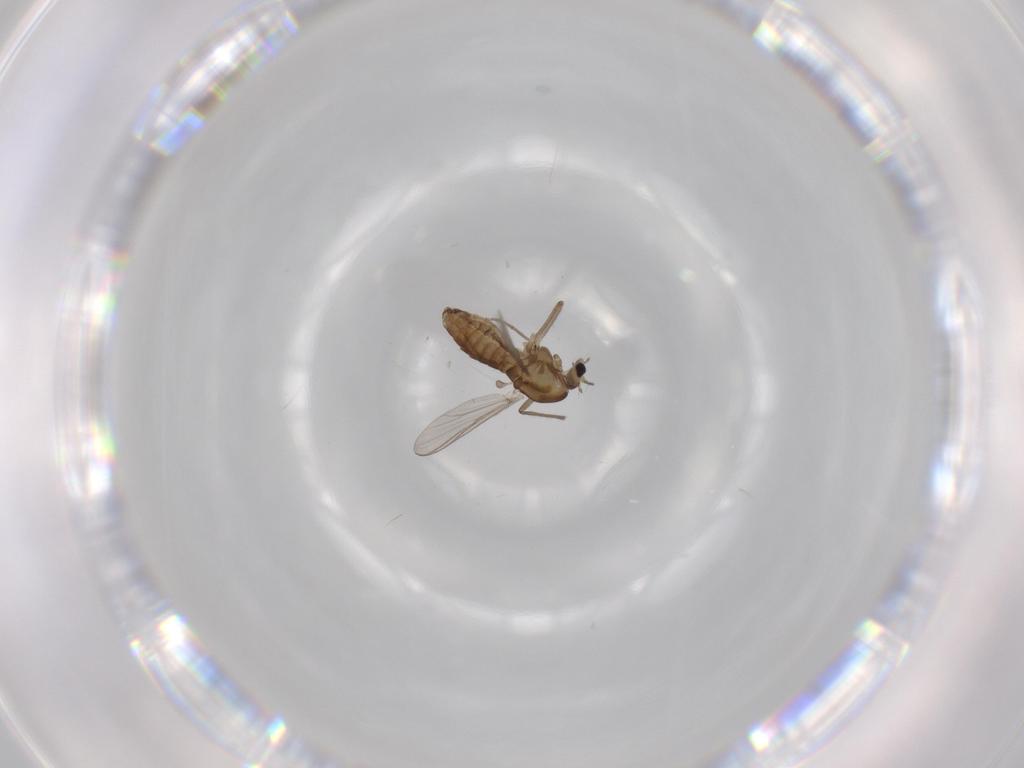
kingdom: Animalia
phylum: Arthropoda
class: Insecta
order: Diptera
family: Chironomidae
